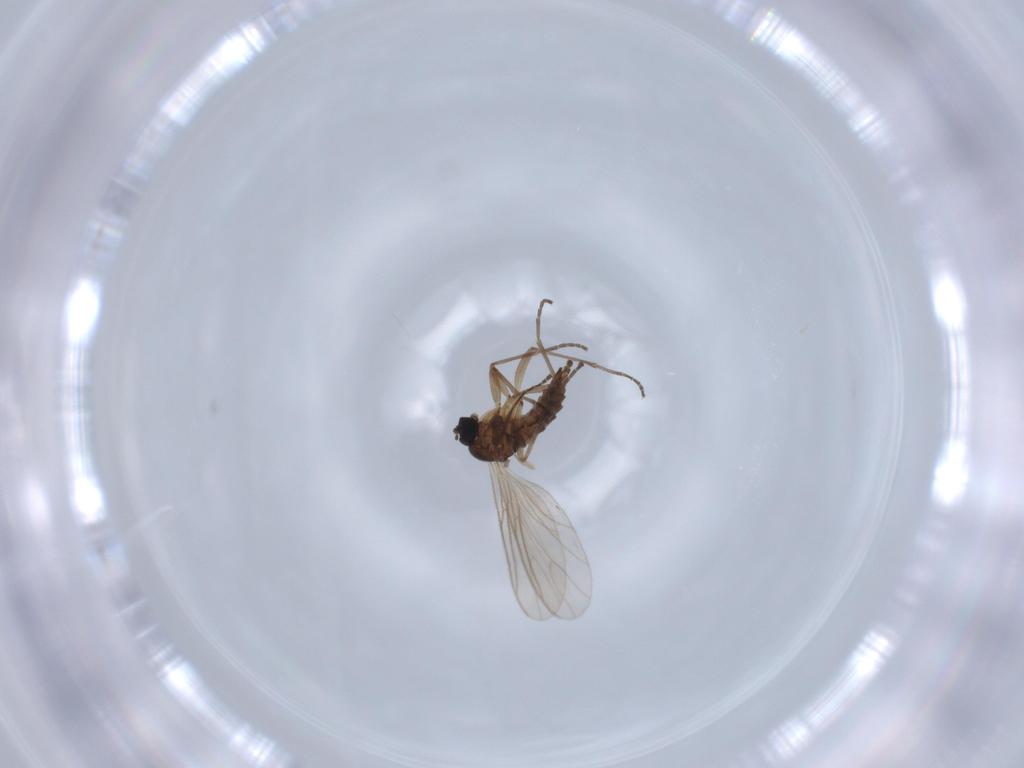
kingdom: Animalia
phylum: Arthropoda
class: Insecta
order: Diptera
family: Sciaridae
